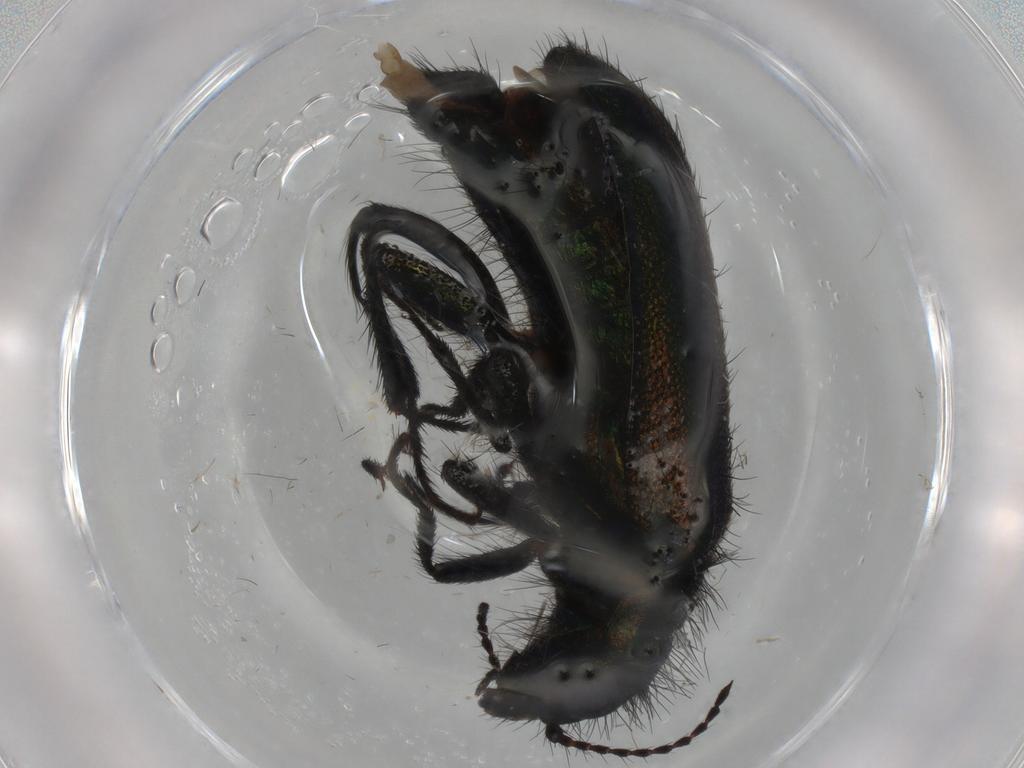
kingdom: Animalia
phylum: Arthropoda
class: Insecta
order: Coleoptera
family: Melyridae
